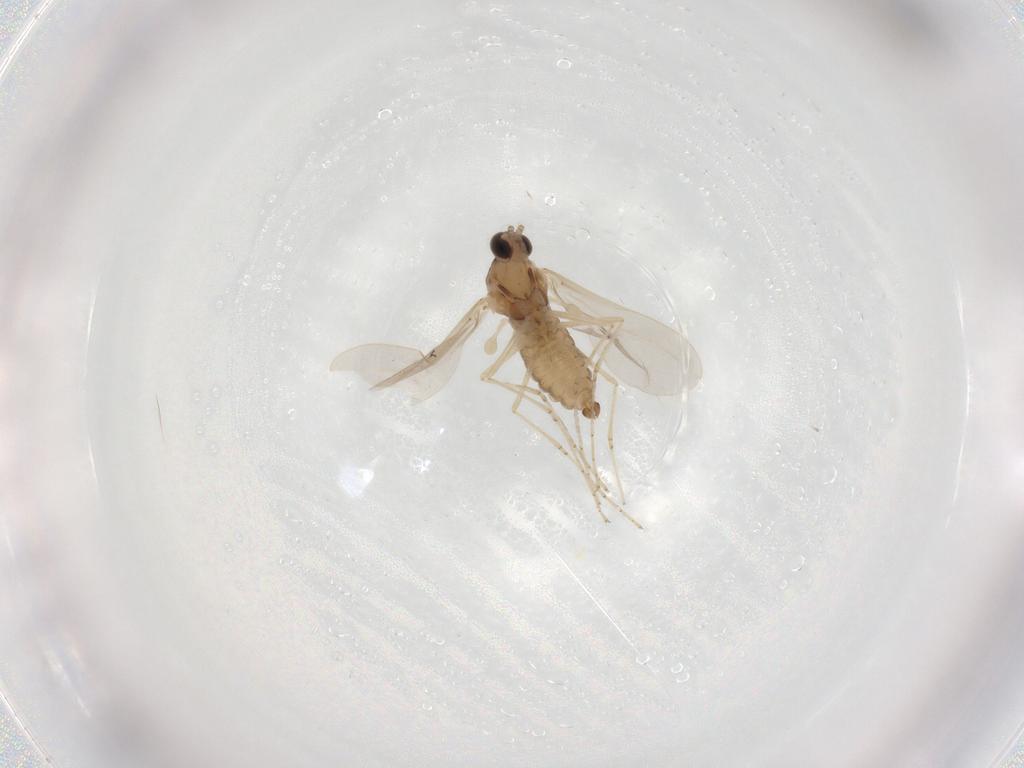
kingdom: Animalia
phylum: Arthropoda
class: Insecta
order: Diptera
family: Cecidomyiidae
